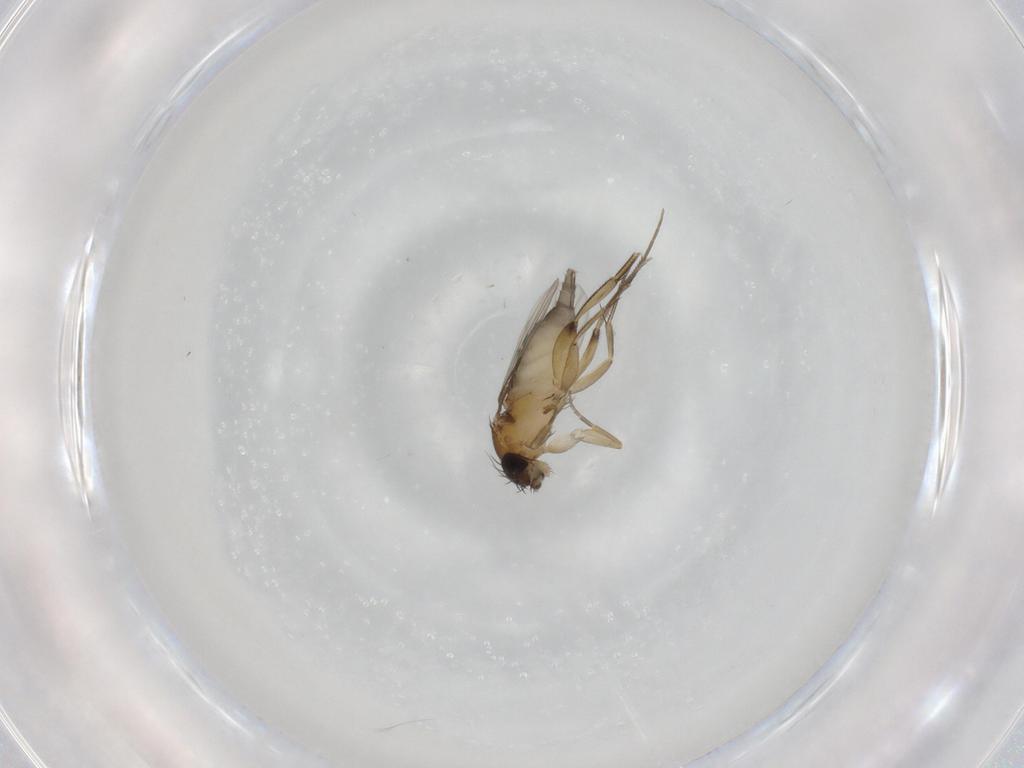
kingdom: Animalia
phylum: Arthropoda
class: Insecta
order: Diptera
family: Phoridae
